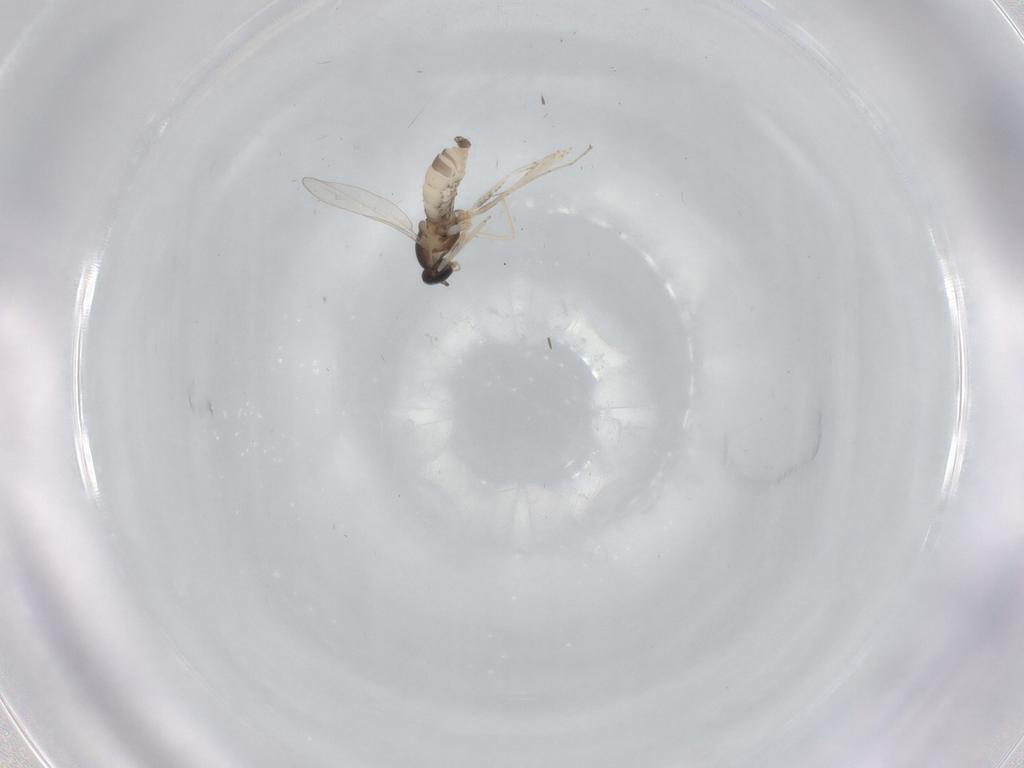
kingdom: Animalia
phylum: Arthropoda
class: Insecta
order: Diptera
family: Cecidomyiidae
